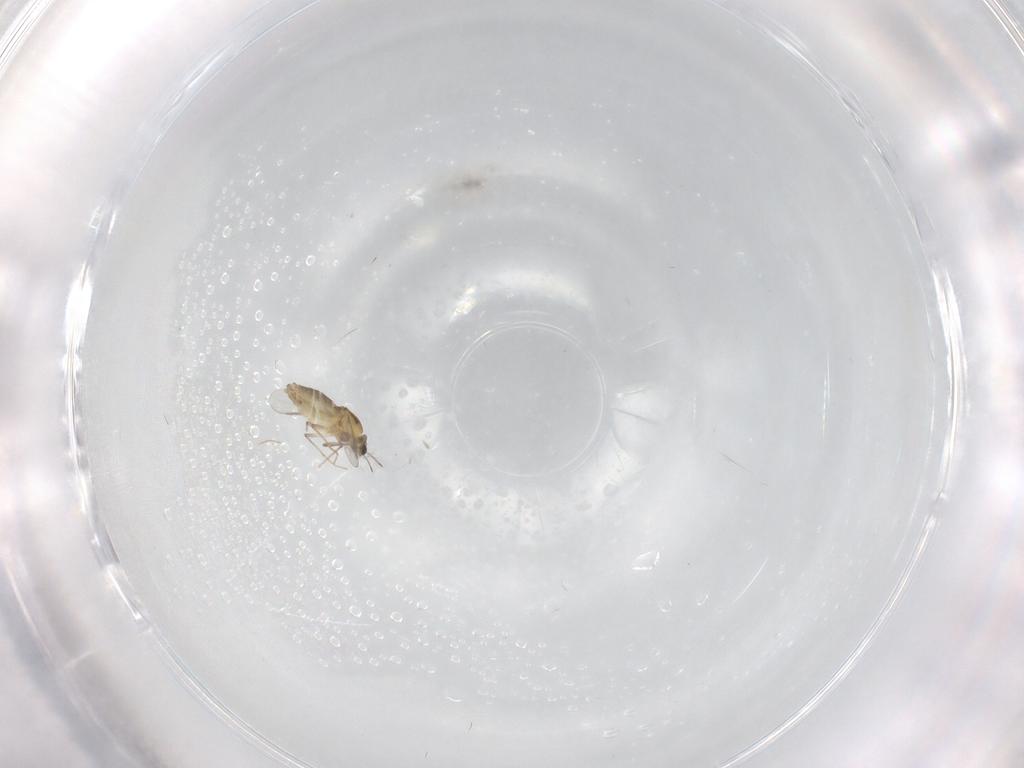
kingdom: Animalia
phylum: Arthropoda
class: Insecta
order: Diptera
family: Chironomidae
